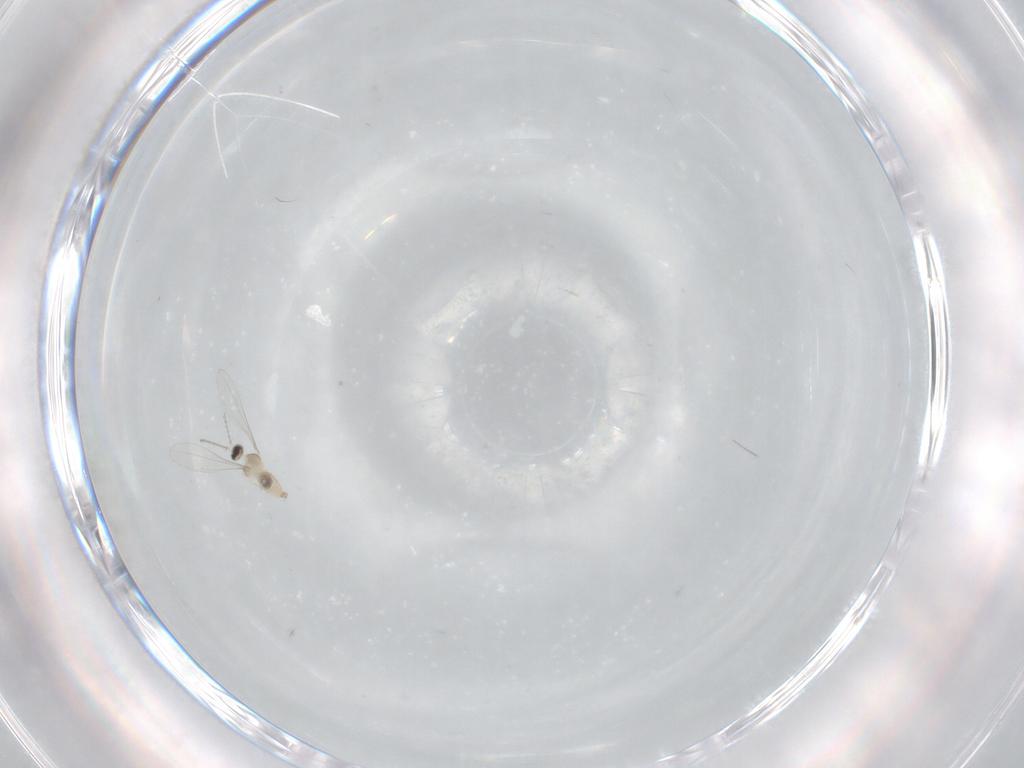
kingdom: Animalia
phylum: Arthropoda
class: Insecta
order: Diptera
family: Cecidomyiidae
